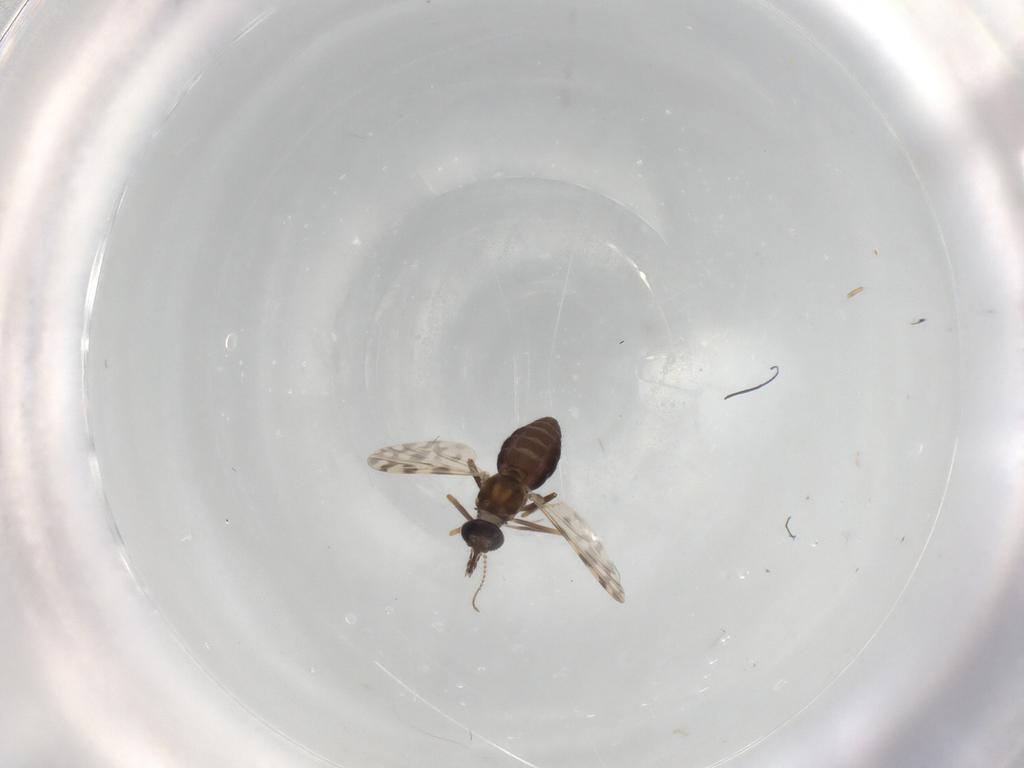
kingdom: Animalia
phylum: Arthropoda
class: Insecta
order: Diptera
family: Ceratopogonidae
